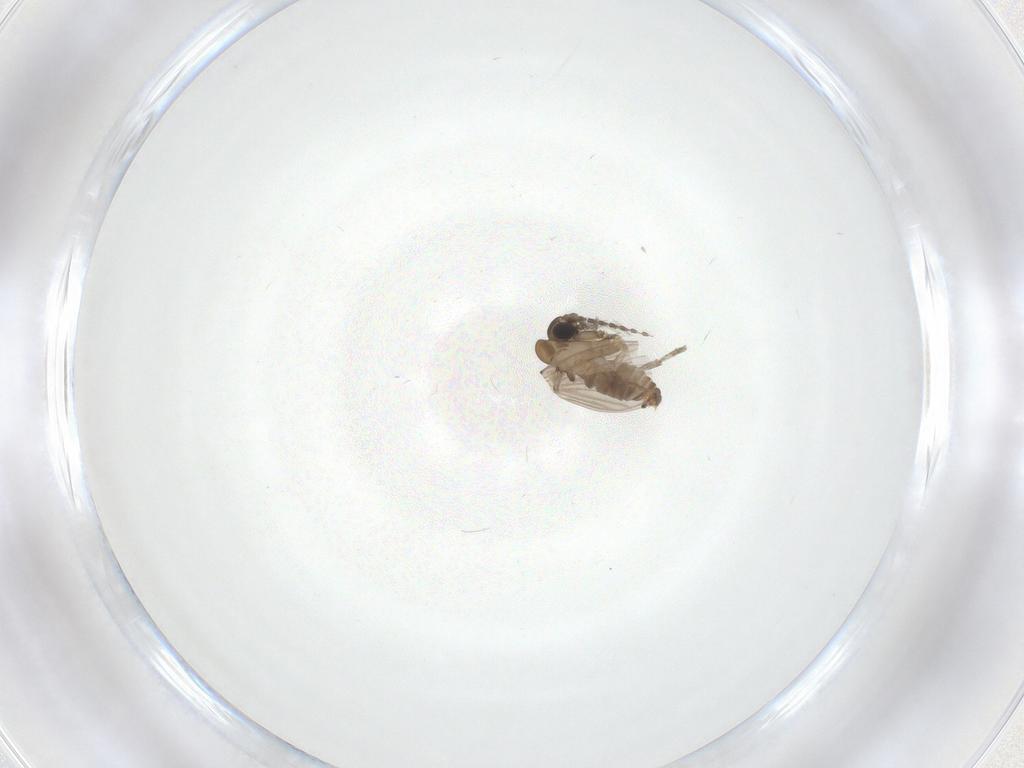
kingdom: Animalia
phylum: Arthropoda
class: Insecta
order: Diptera
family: Psychodidae
